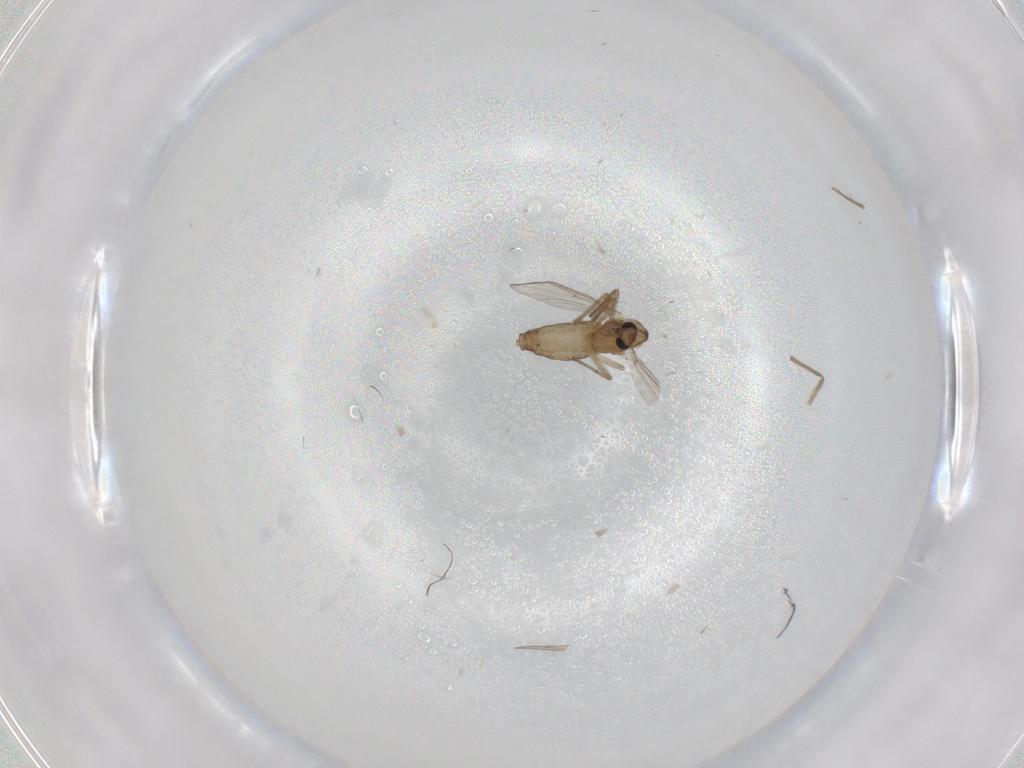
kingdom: Animalia
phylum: Arthropoda
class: Insecta
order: Diptera
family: Chironomidae
